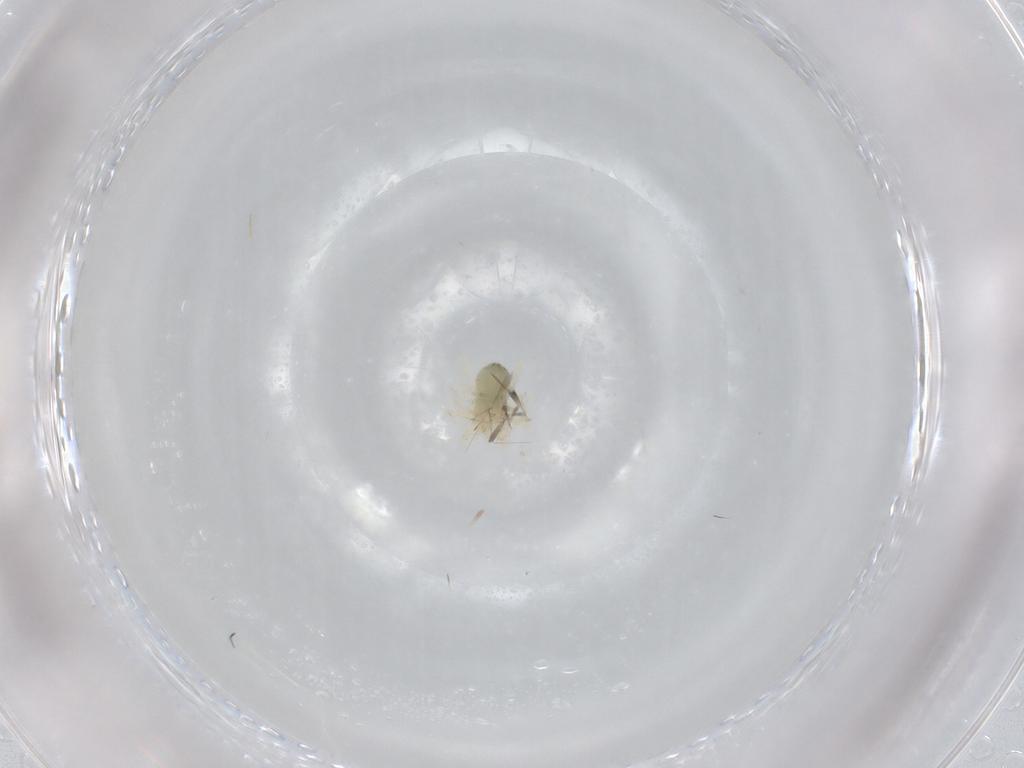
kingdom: Animalia
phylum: Arthropoda
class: Arachnida
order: Trombidiformes
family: Anystidae
